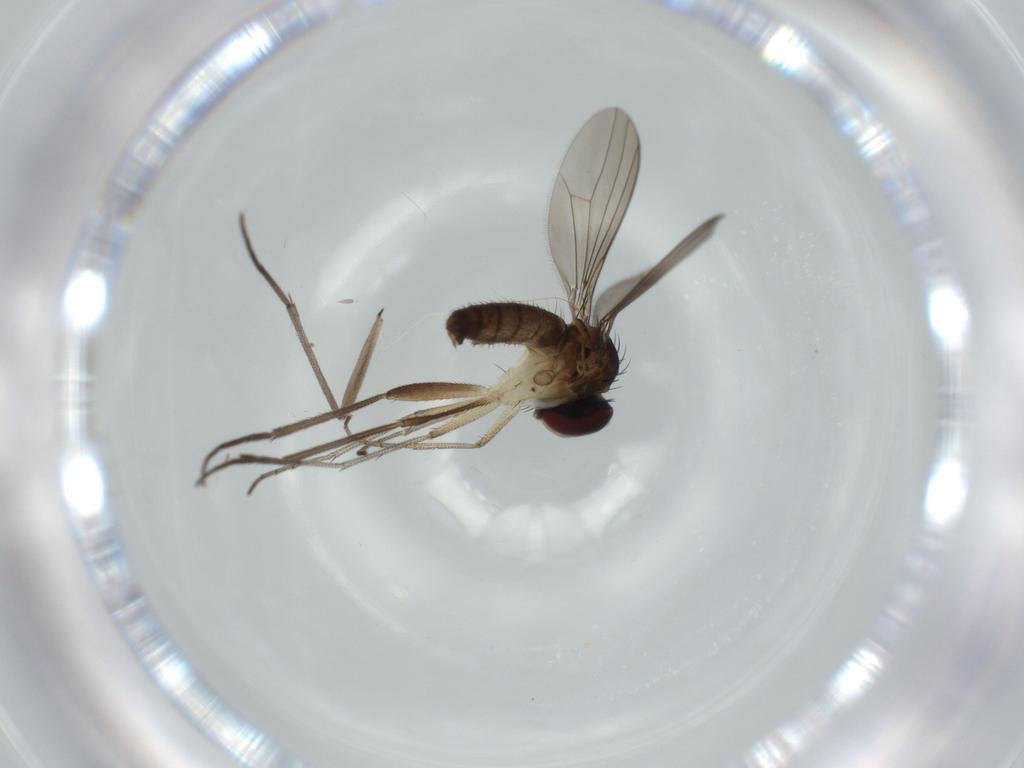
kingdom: Animalia
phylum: Arthropoda
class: Insecta
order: Diptera
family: Dolichopodidae
